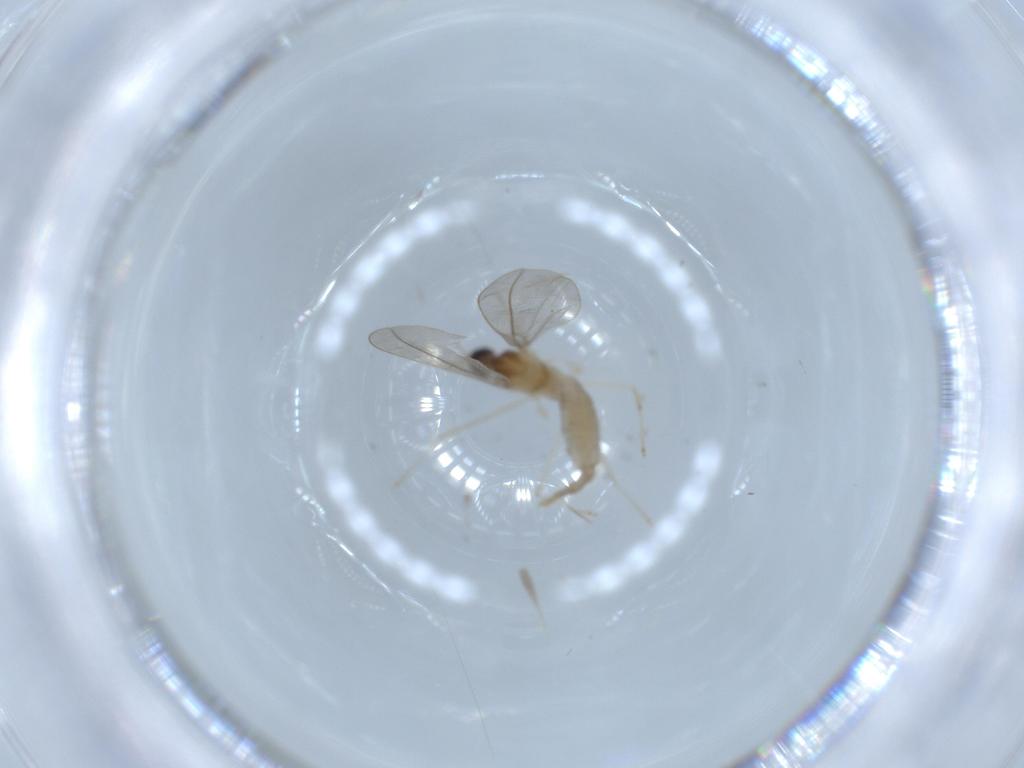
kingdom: Animalia
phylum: Arthropoda
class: Insecta
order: Diptera
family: Cecidomyiidae
